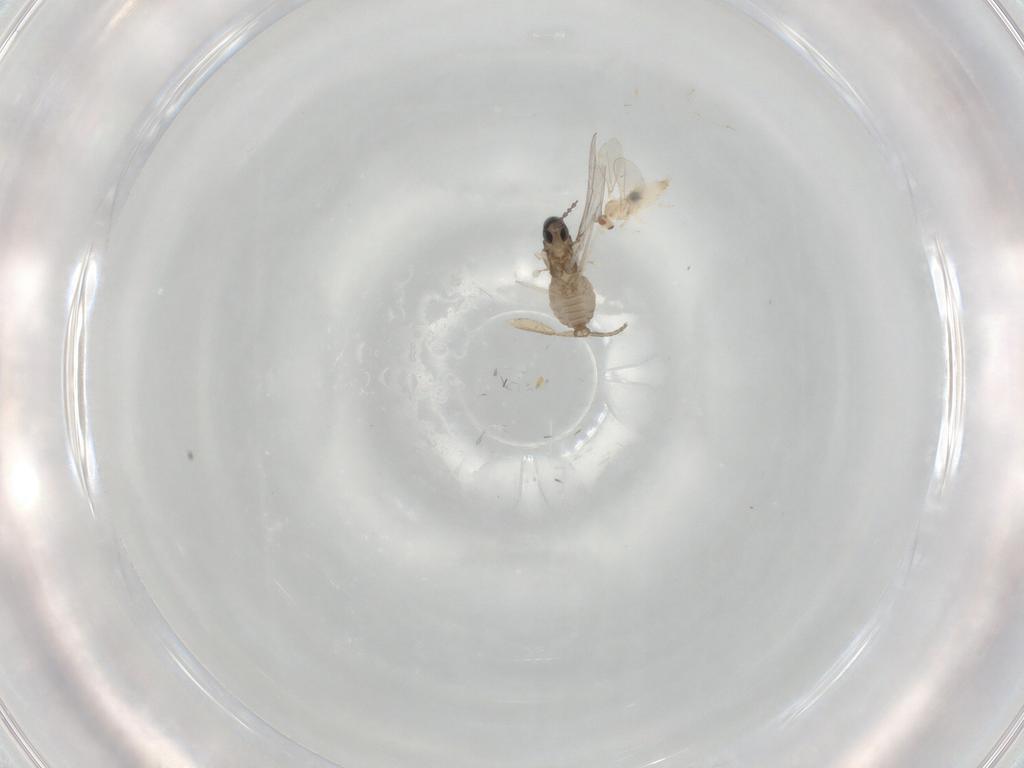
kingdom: Animalia
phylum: Arthropoda
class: Insecta
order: Diptera
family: Cecidomyiidae
